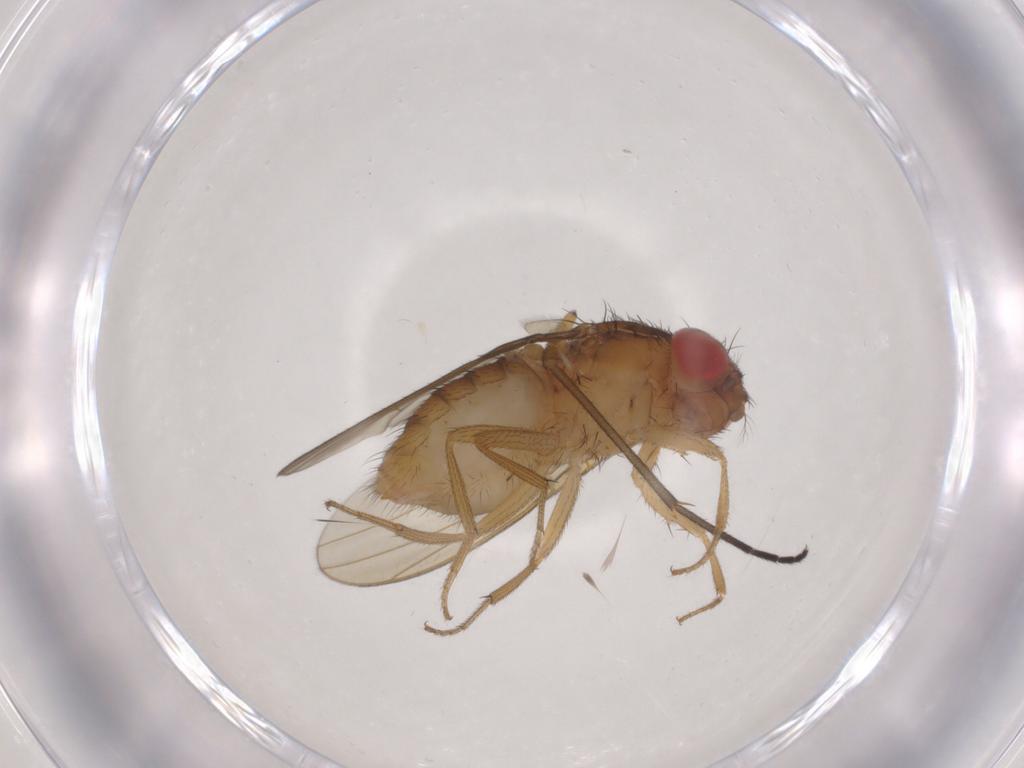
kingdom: Animalia
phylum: Arthropoda
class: Insecta
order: Diptera
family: Drosophilidae
